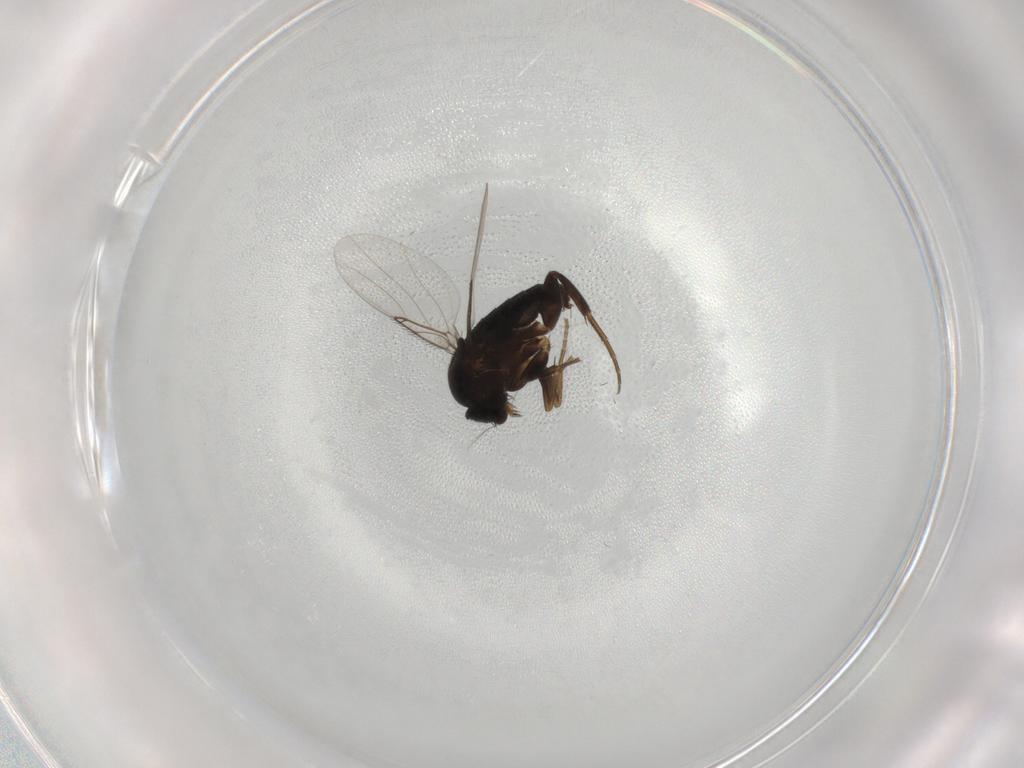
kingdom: Animalia
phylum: Arthropoda
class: Insecta
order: Diptera
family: Phoridae
